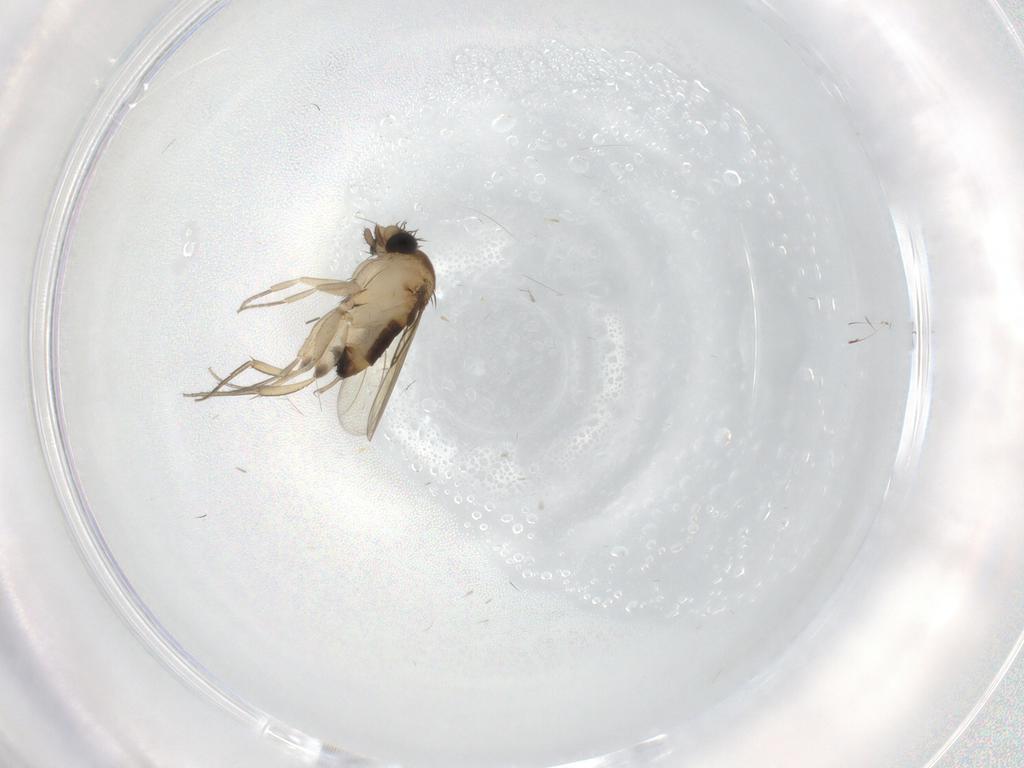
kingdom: Animalia
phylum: Arthropoda
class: Insecta
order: Diptera
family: Phoridae
